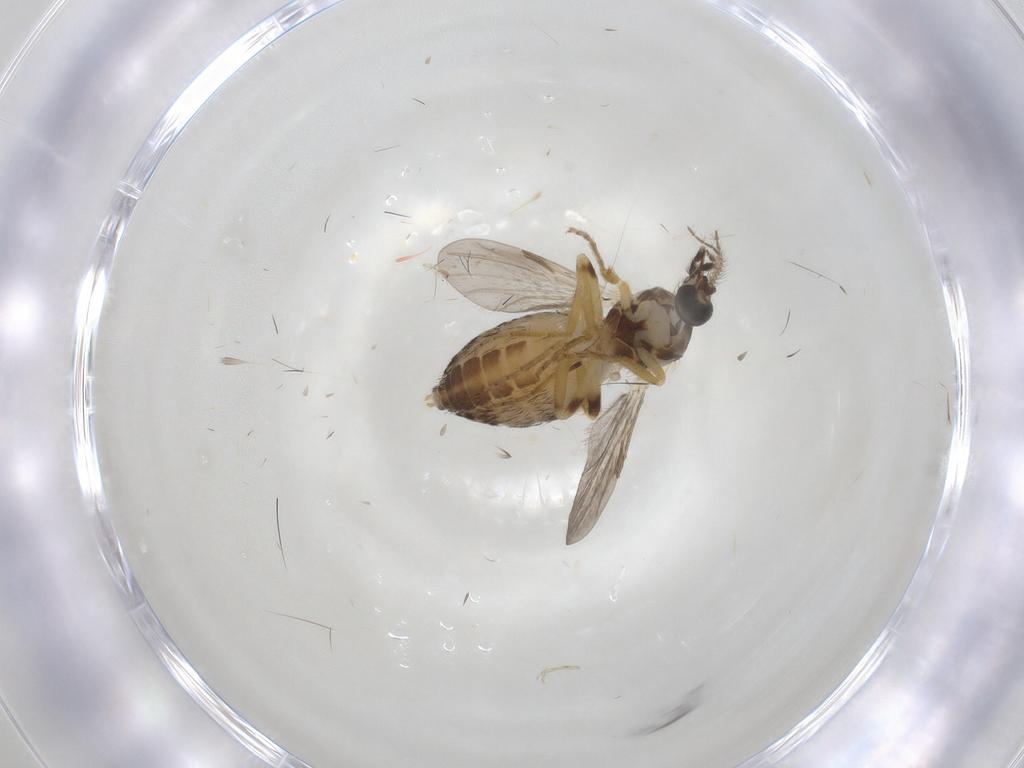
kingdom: Animalia
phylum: Arthropoda
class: Insecta
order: Diptera
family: Ceratopogonidae
